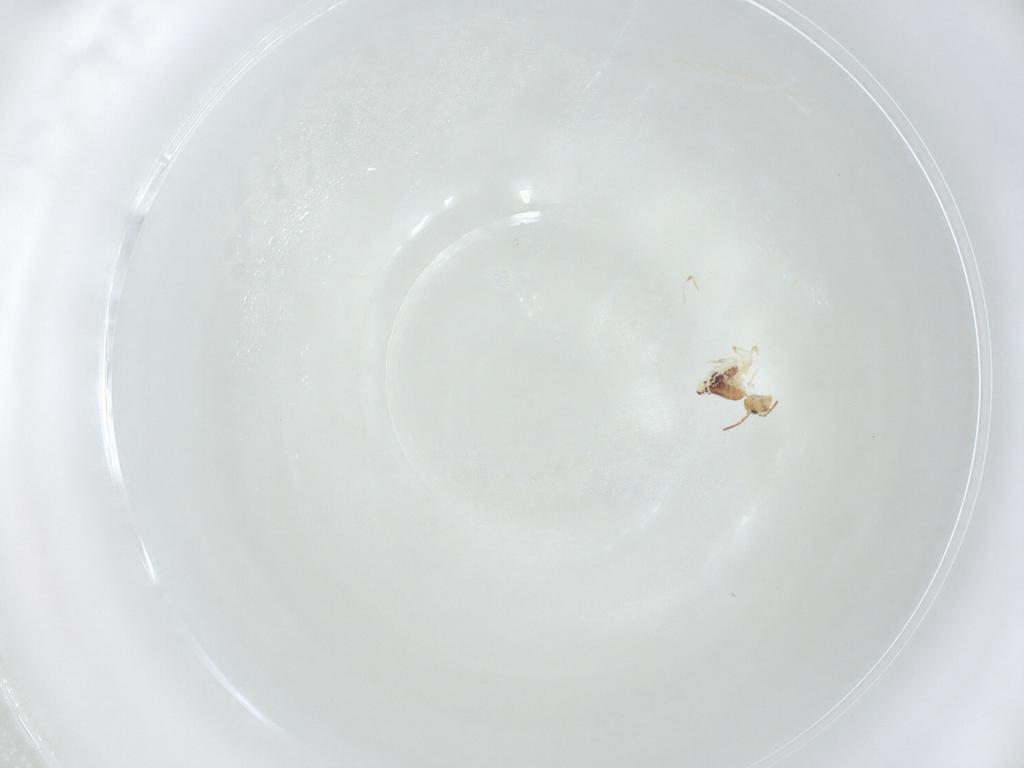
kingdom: Animalia
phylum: Arthropoda
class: Collembola
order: Symphypleona
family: Bourletiellidae
